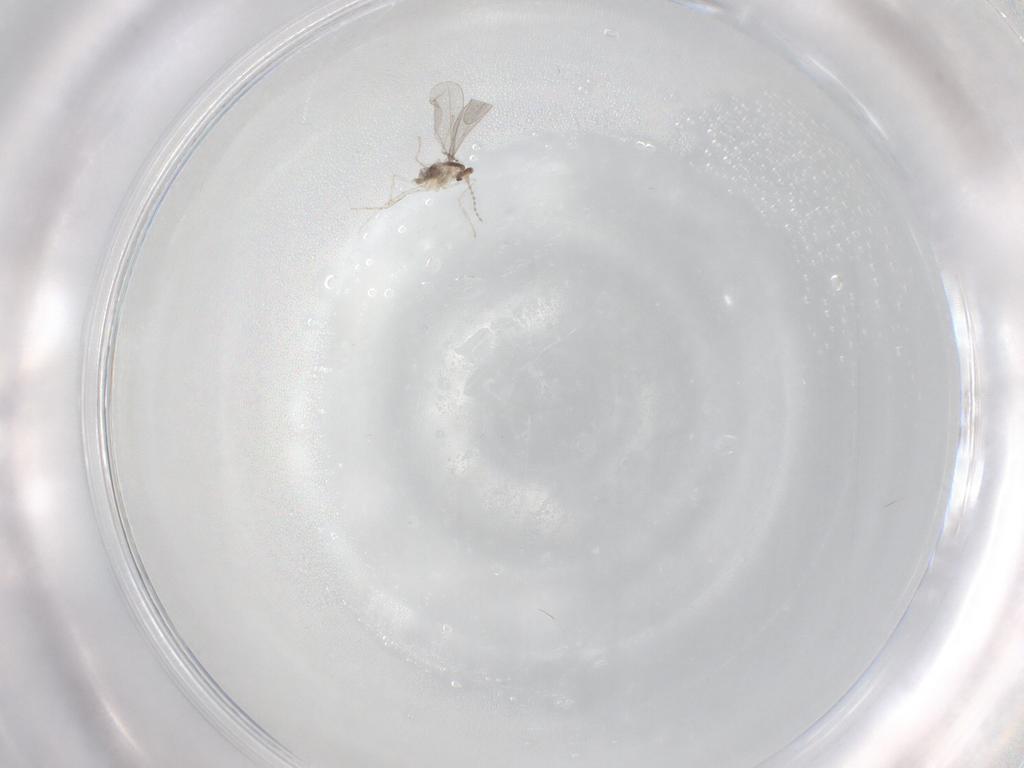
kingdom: Animalia
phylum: Arthropoda
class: Insecta
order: Diptera
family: Cecidomyiidae
